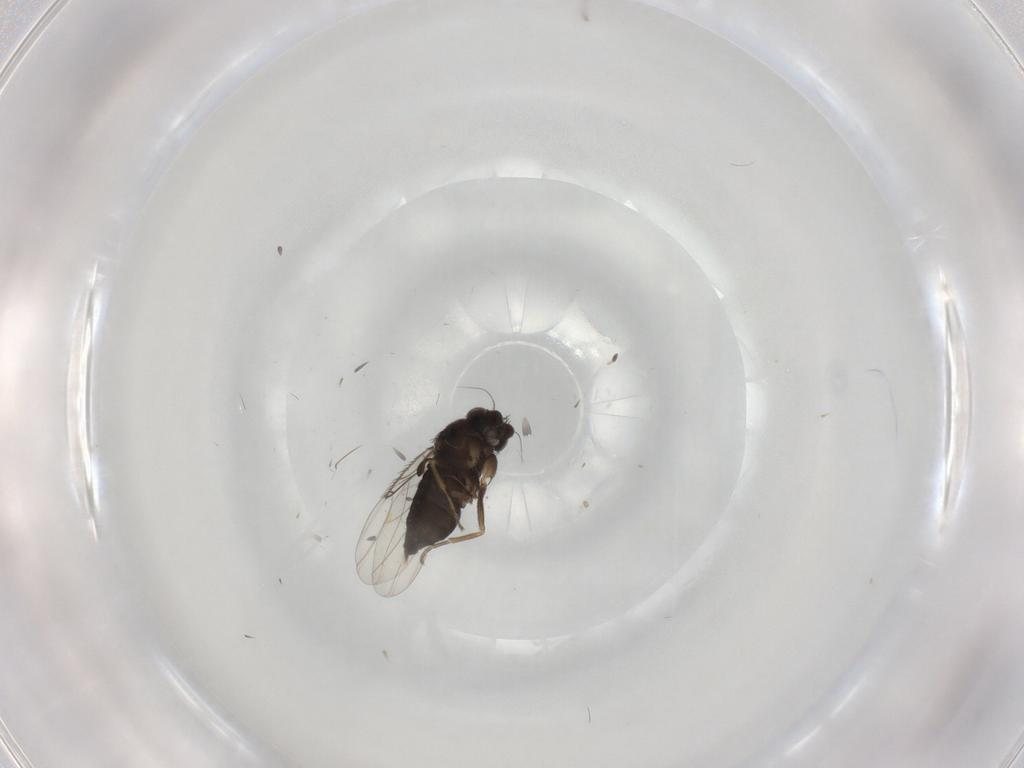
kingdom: Animalia
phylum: Arthropoda
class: Insecta
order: Diptera
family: Phoridae
